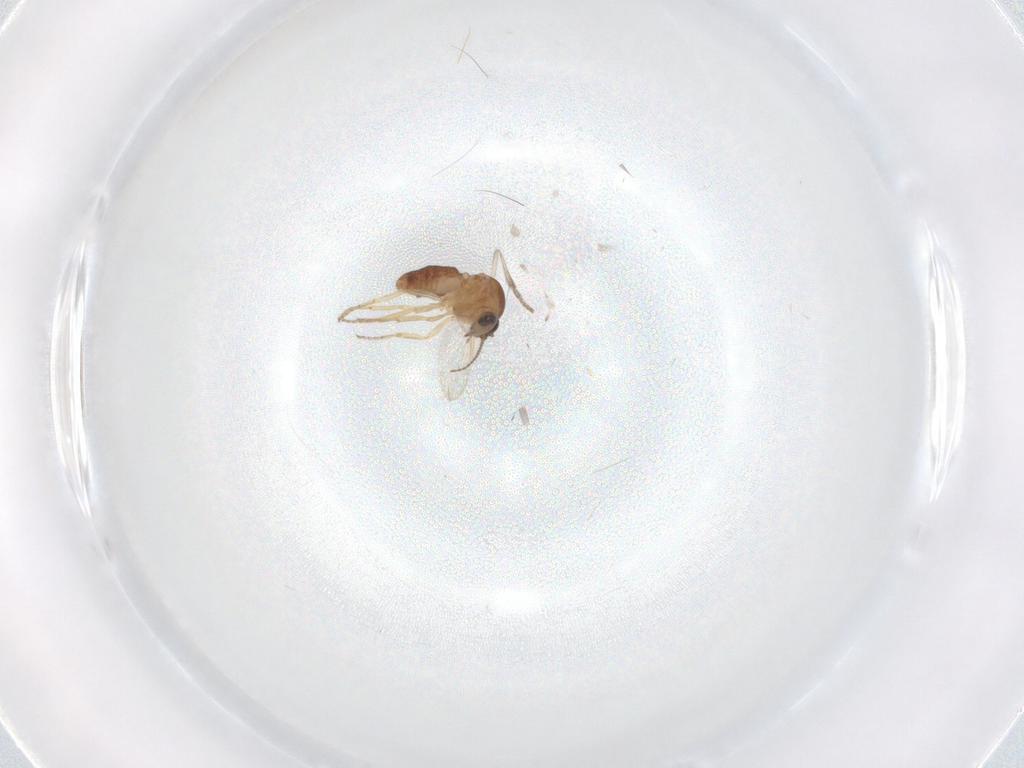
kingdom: Animalia
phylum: Arthropoda
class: Insecta
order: Diptera
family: Ceratopogonidae
